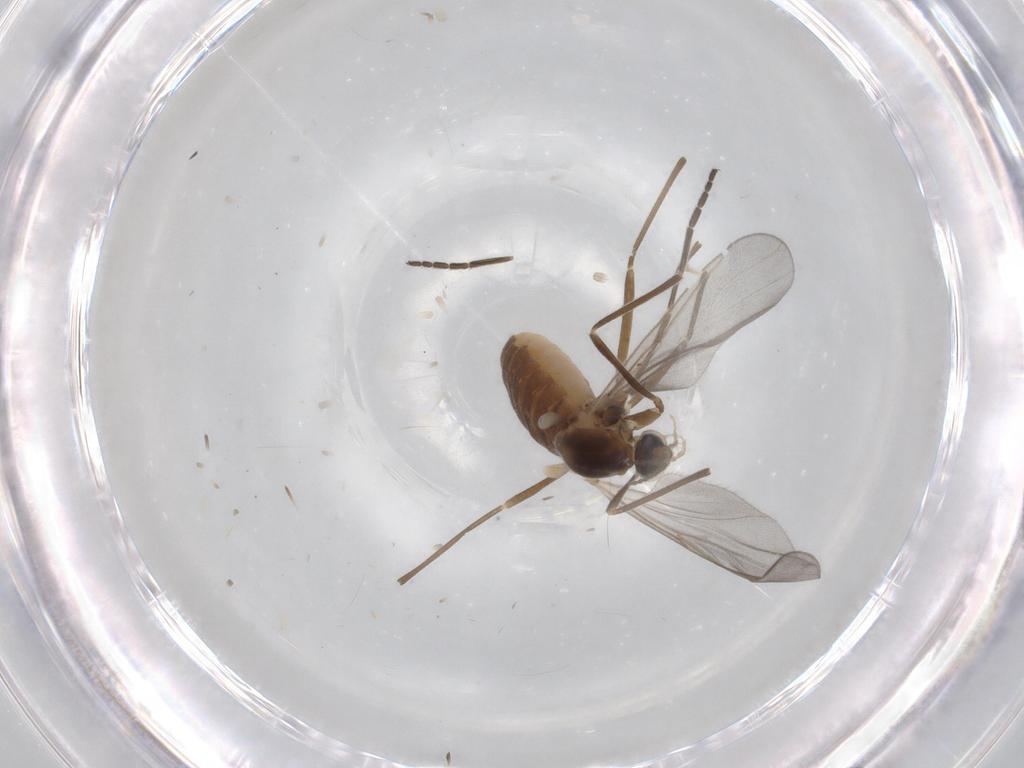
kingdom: Animalia
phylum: Arthropoda
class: Insecta
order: Diptera
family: Cecidomyiidae
